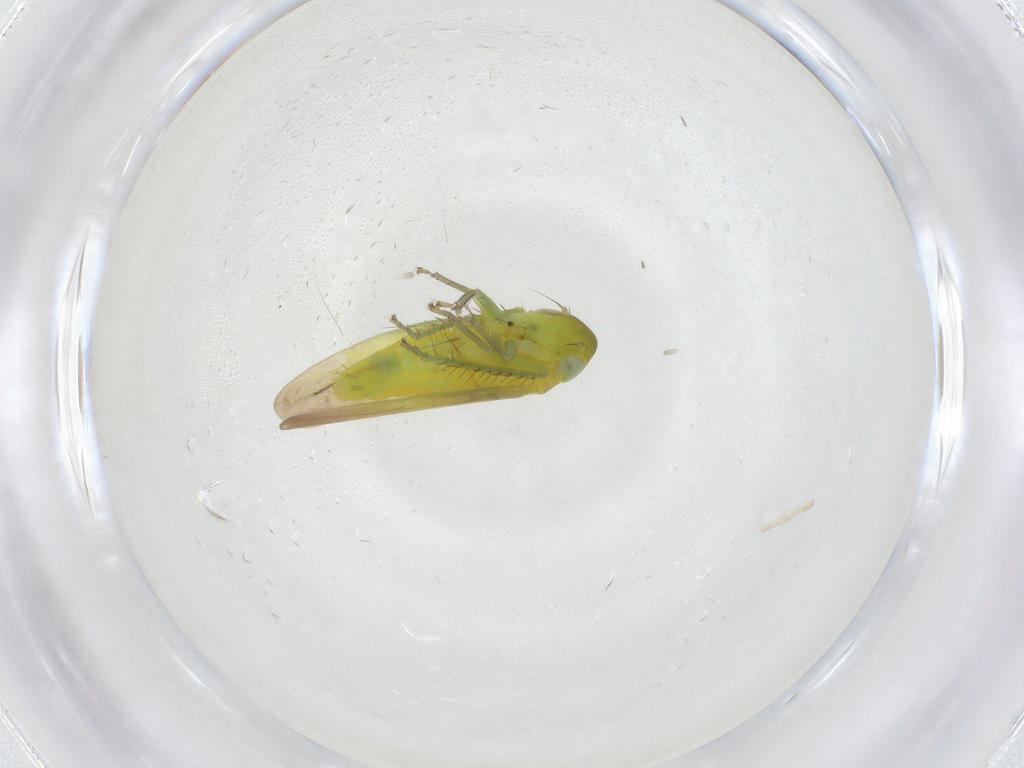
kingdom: Animalia
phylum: Arthropoda
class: Insecta
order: Hemiptera
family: Cicadellidae
